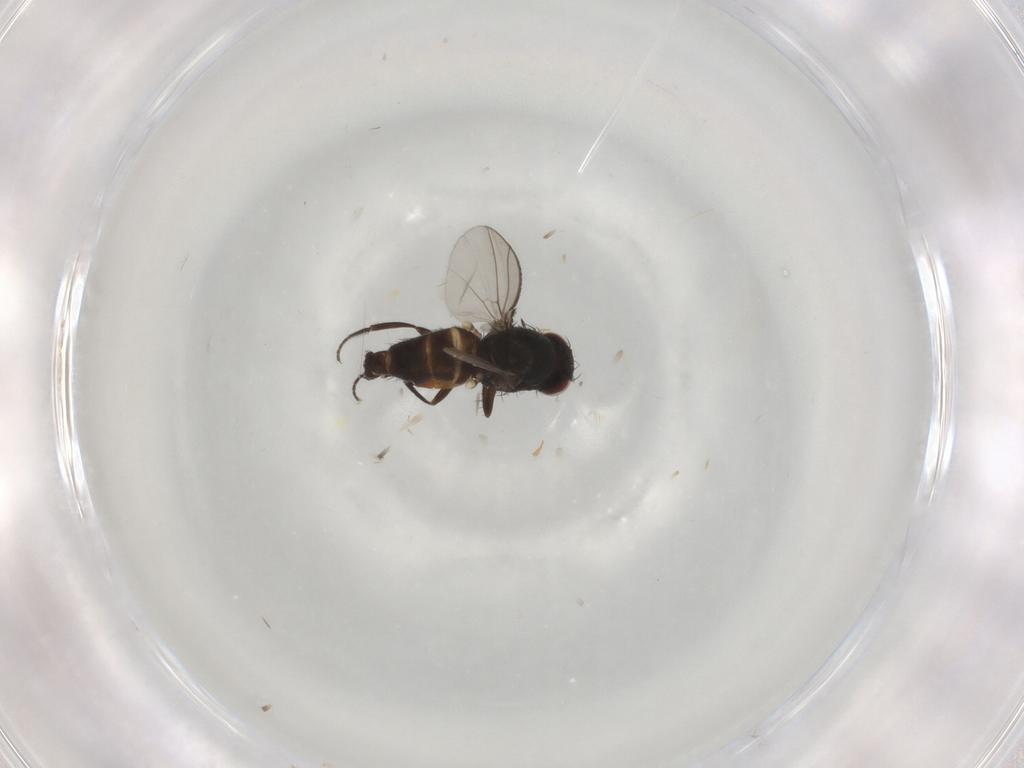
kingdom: Animalia
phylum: Arthropoda
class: Insecta
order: Diptera
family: Carnidae
